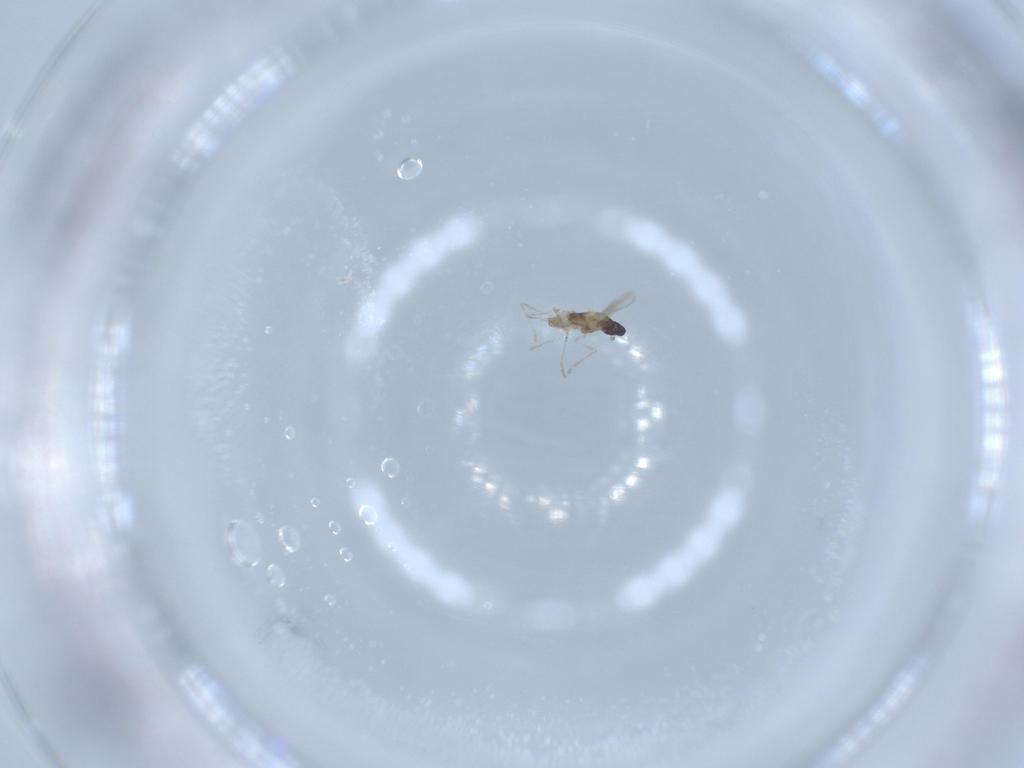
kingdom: Animalia
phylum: Arthropoda
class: Insecta
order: Diptera
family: Cecidomyiidae
